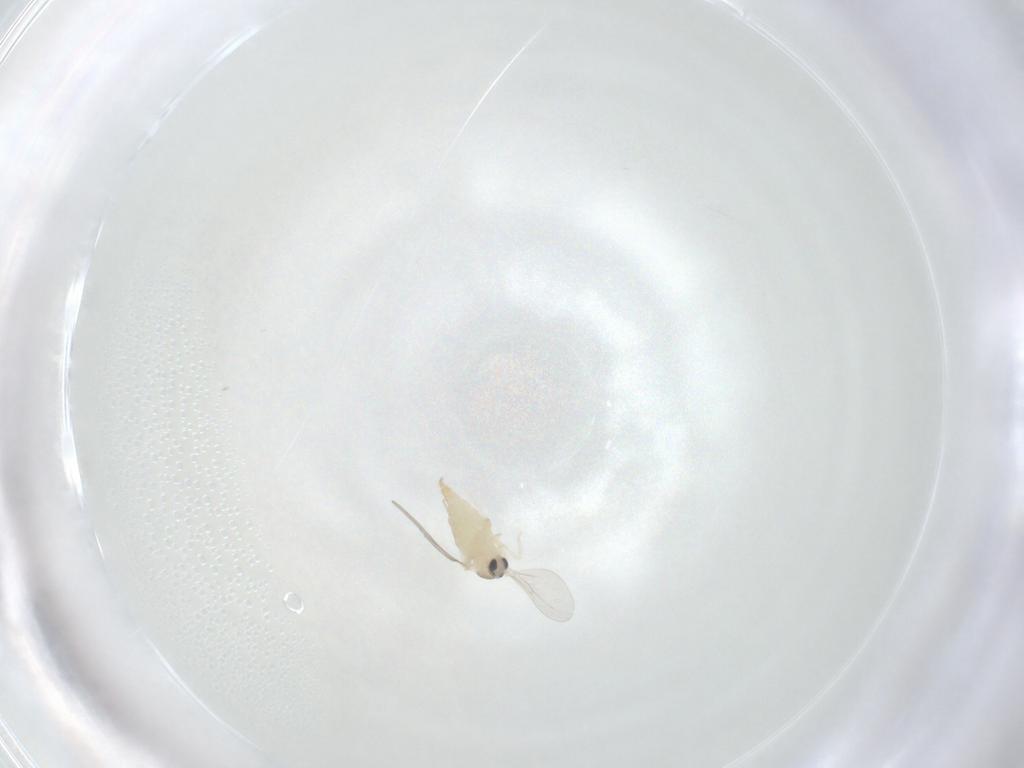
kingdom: Animalia
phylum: Arthropoda
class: Insecta
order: Diptera
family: Cecidomyiidae
